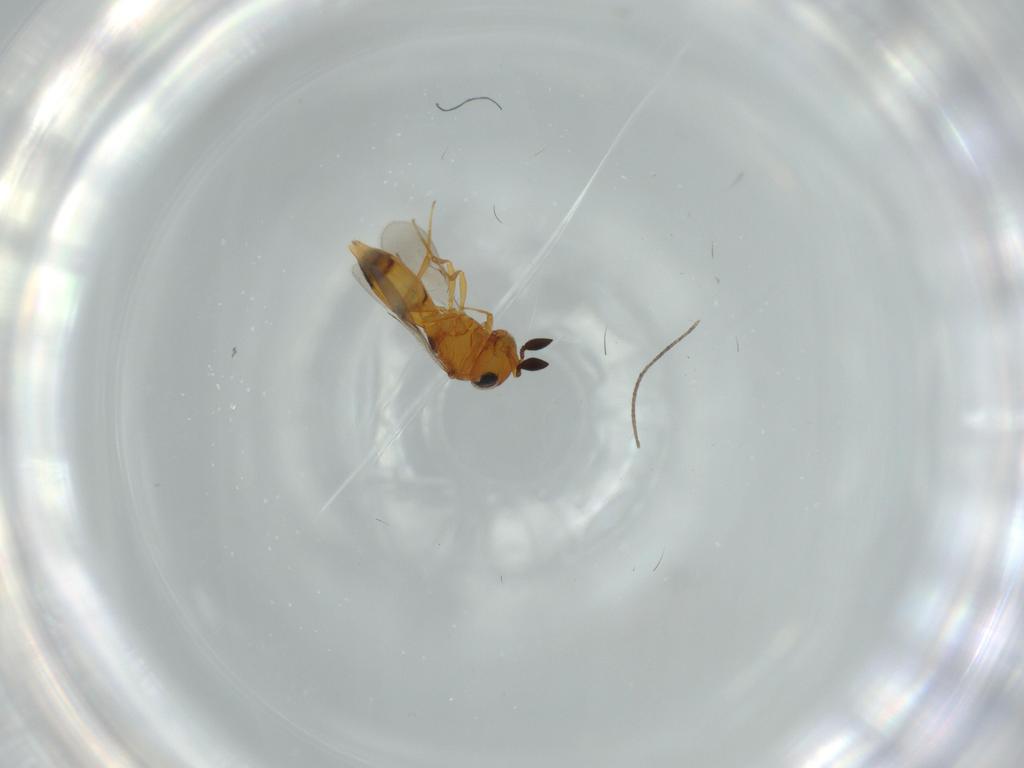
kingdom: Animalia
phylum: Arthropoda
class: Insecta
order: Hymenoptera
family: Scelionidae
